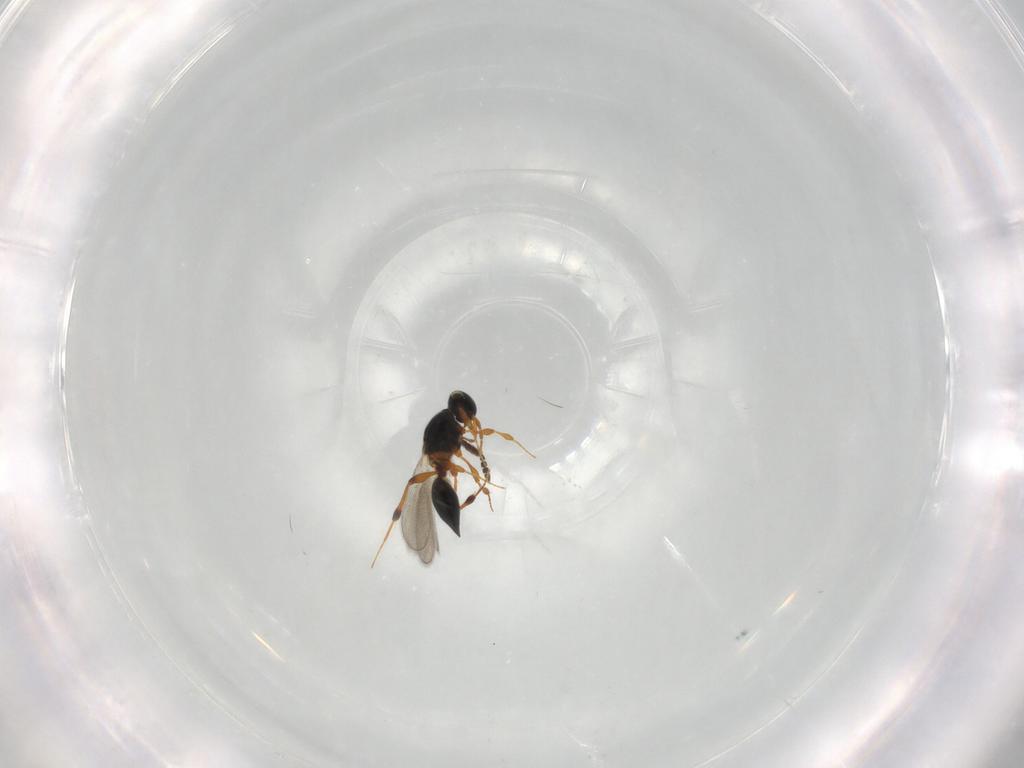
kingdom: Animalia
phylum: Arthropoda
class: Insecta
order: Hymenoptera
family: Platygastridae
